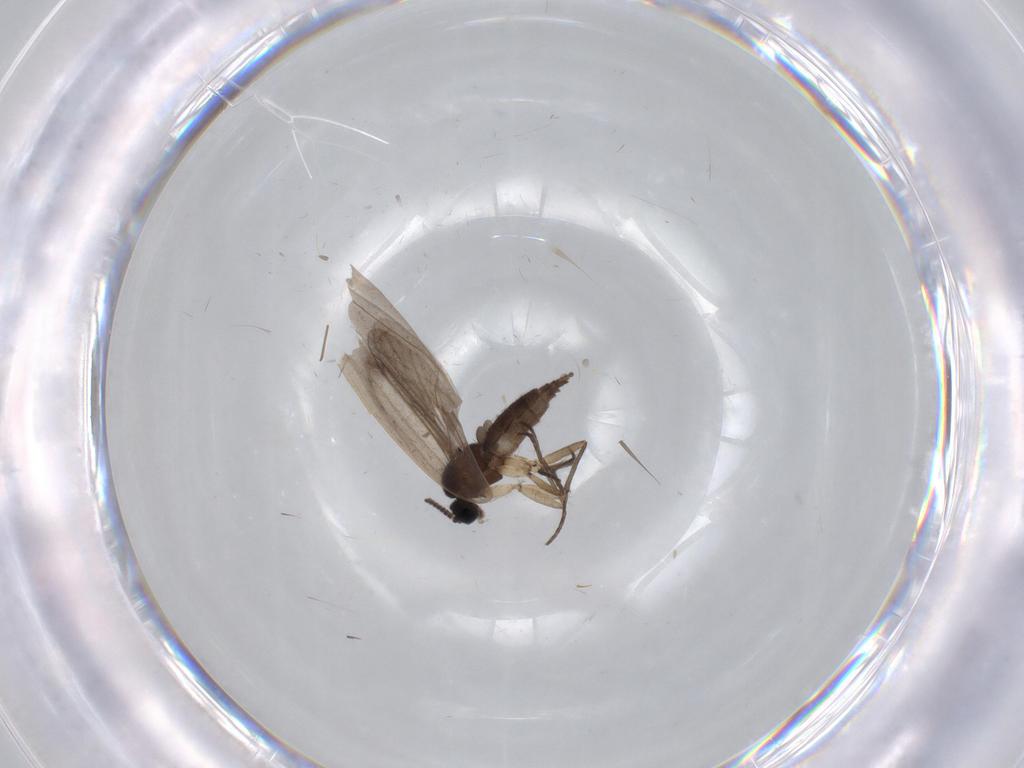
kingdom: Animalia
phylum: Arthropoda
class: Insecta
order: Diptera
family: Sciaridae
